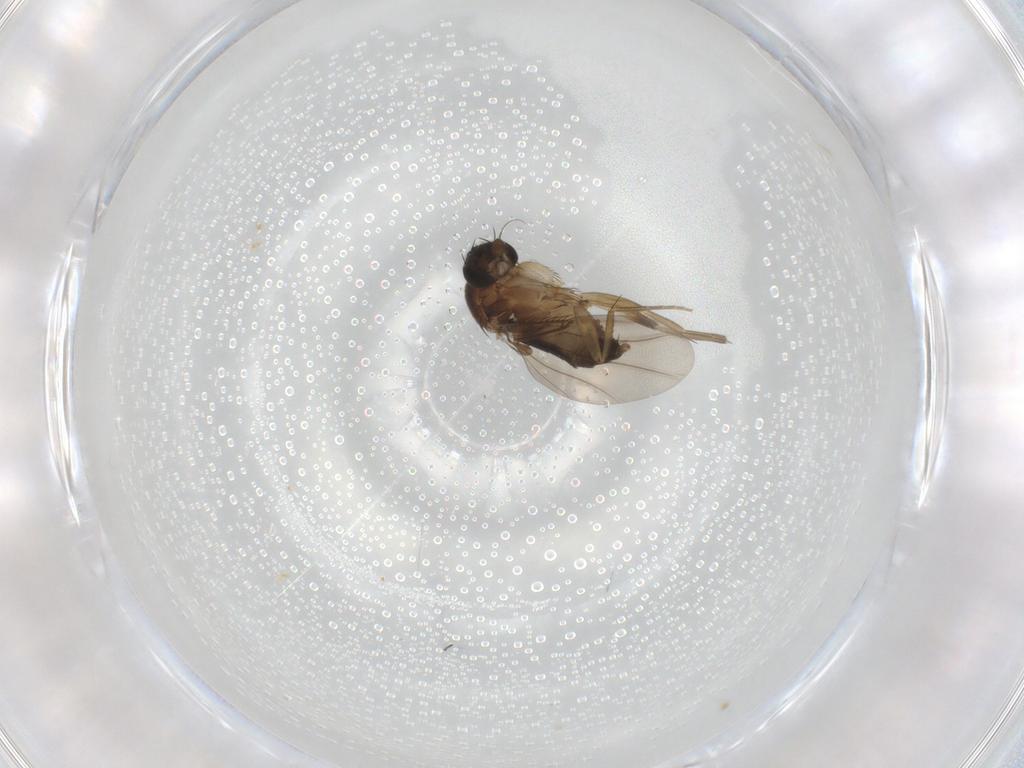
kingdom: Animalia
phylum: Arthropoda
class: Insecta
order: Diptera
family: Phoridae
